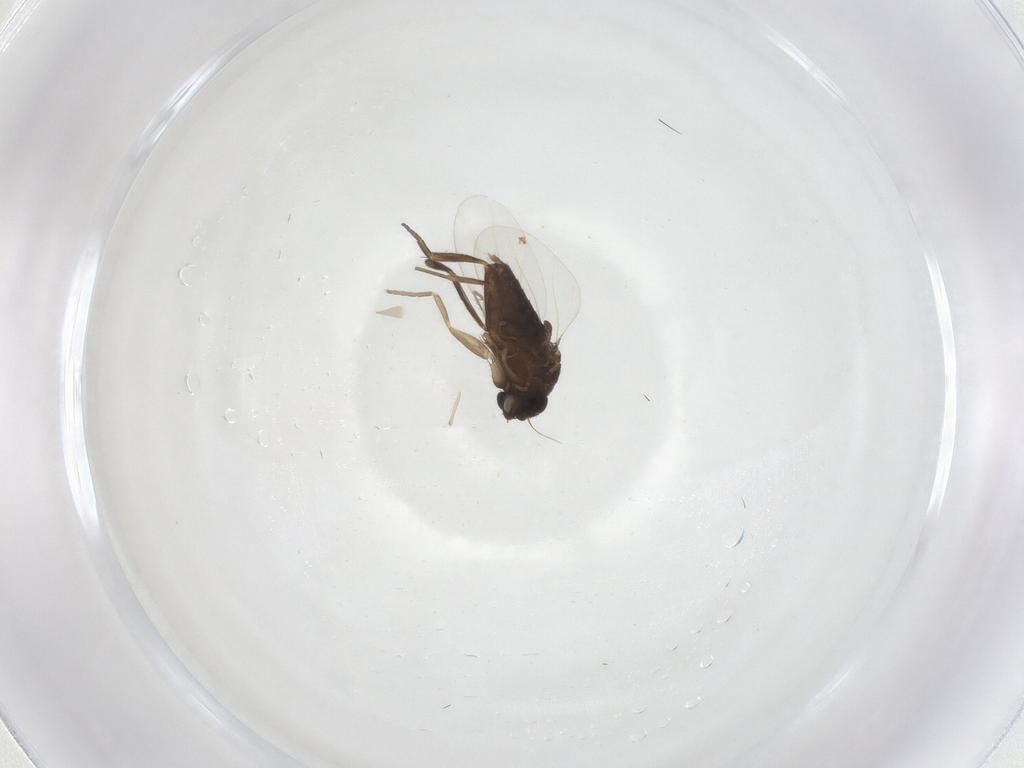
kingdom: Animalia
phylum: Arthropoda
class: Insecta
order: Diptera
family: Phoridae
